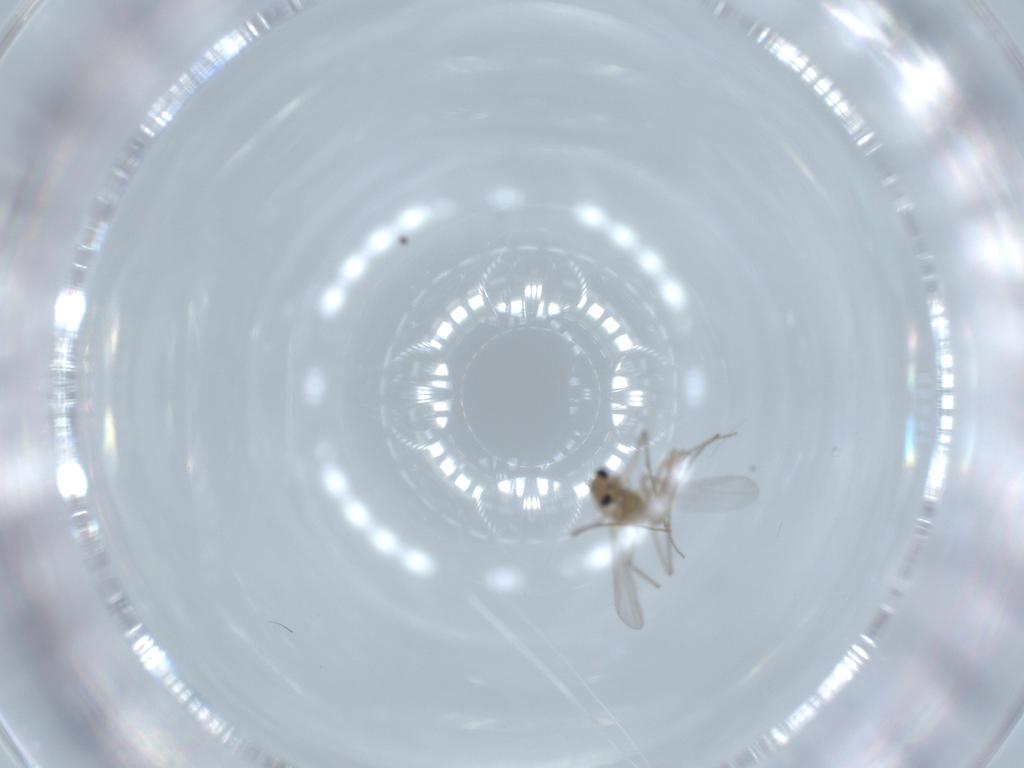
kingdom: Animalia
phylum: Arthropoda
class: Insecta
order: Diptera
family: Chironomidae
